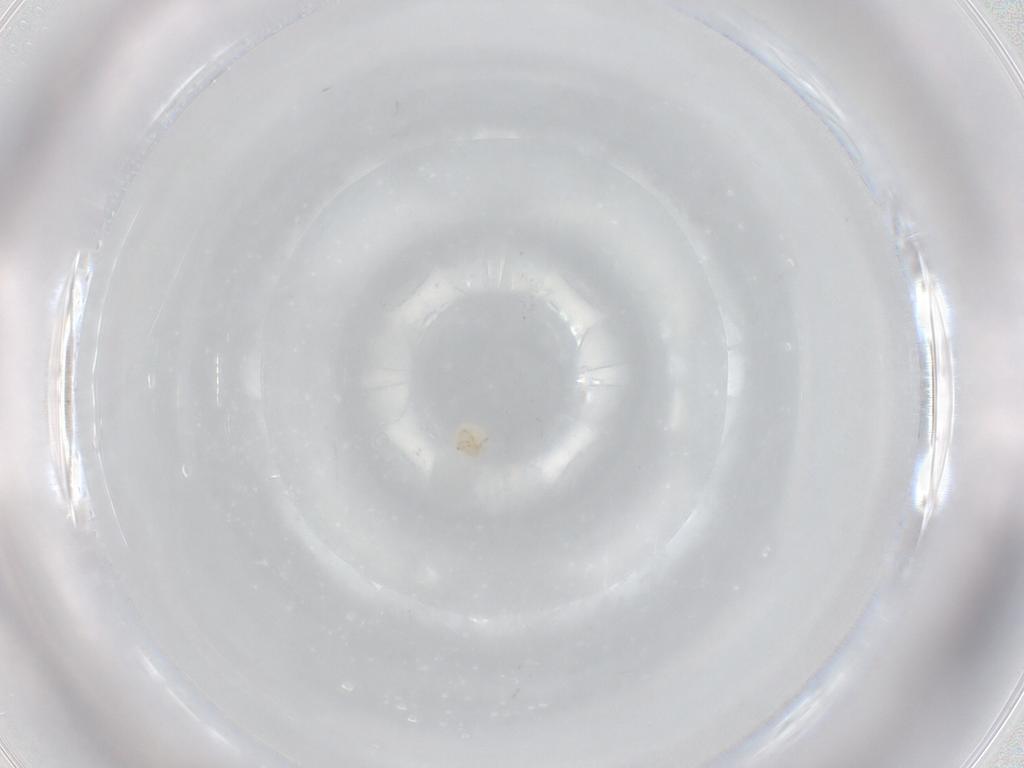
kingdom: Animalia
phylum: Arthropoda
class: Arachnida
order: Trombidiformes
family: Sperchontidae
